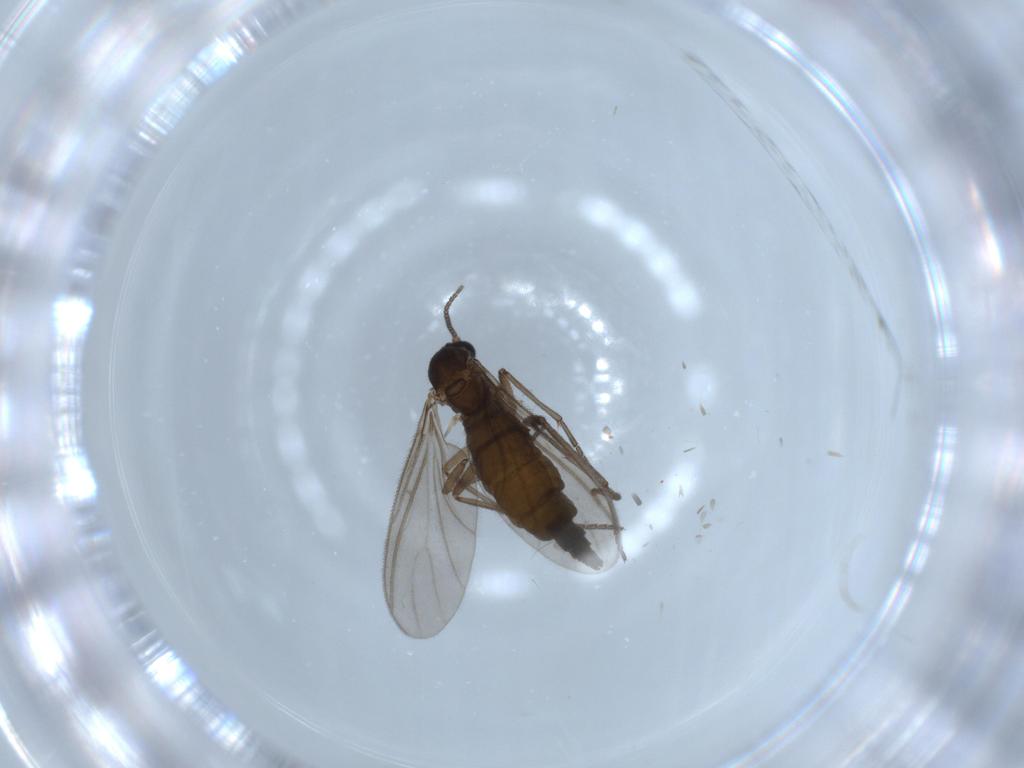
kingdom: Animalia
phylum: Arthropoda
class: Insecta
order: Diptera
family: Sciaridae
